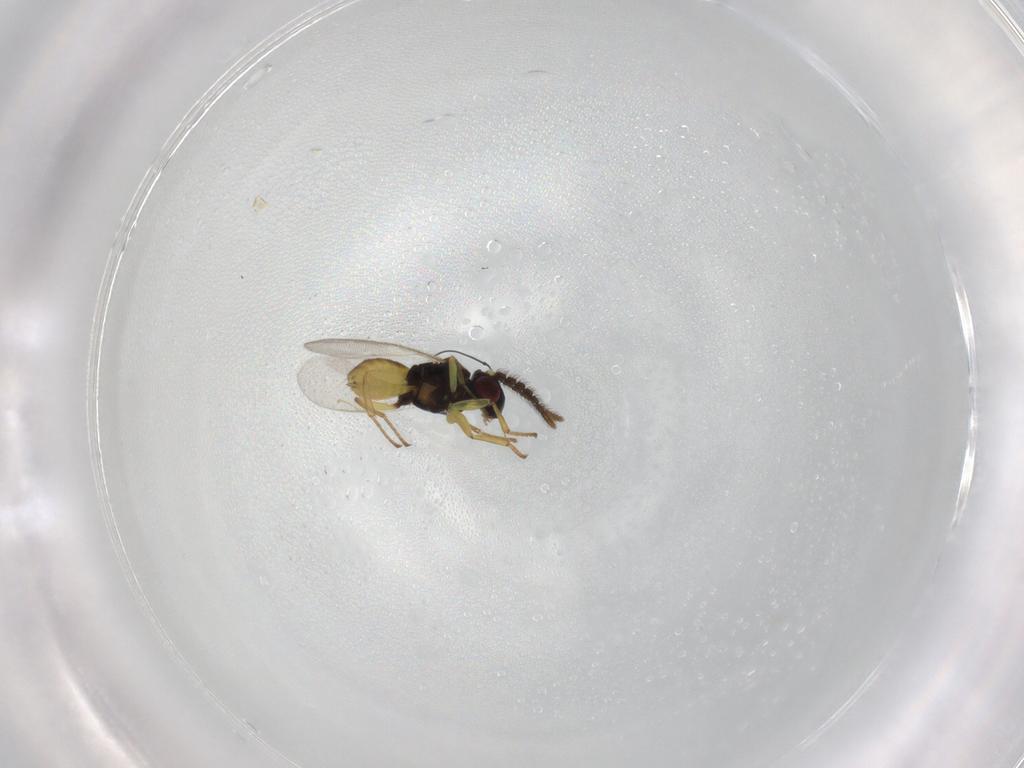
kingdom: Animalia
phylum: Arthropoda
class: Insecta
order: Hymenoptera
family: Tanaostigmatidae
